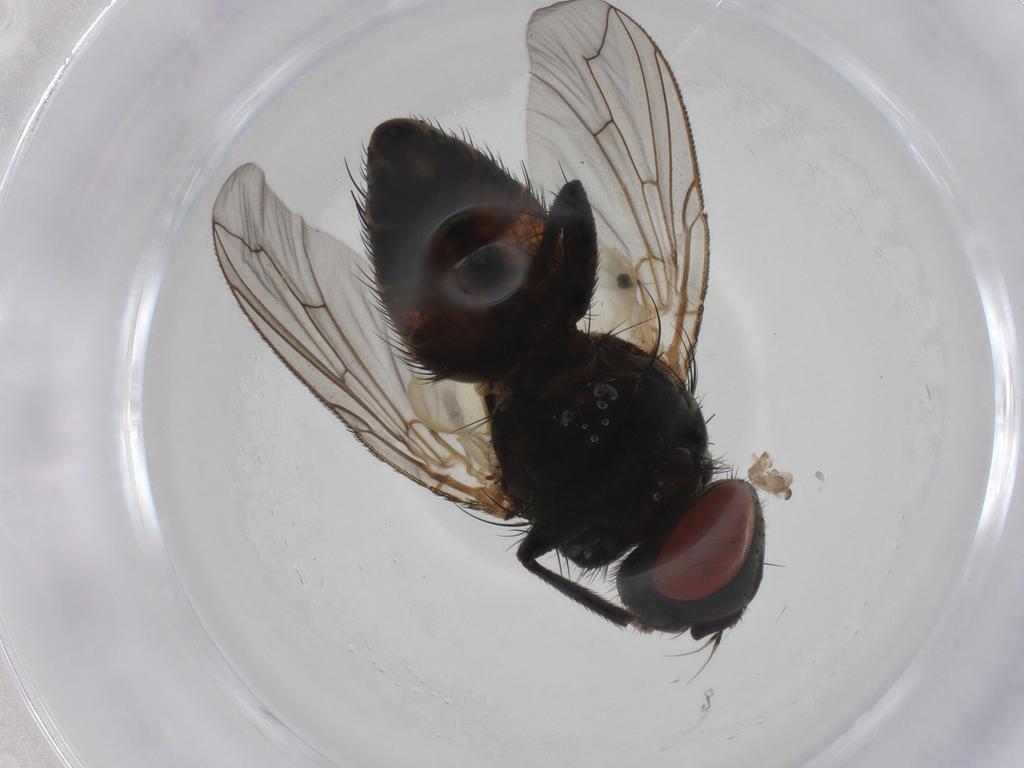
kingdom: Animalia
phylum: Arthropoda
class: Insecta
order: Diptera
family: Sarcophagidae
